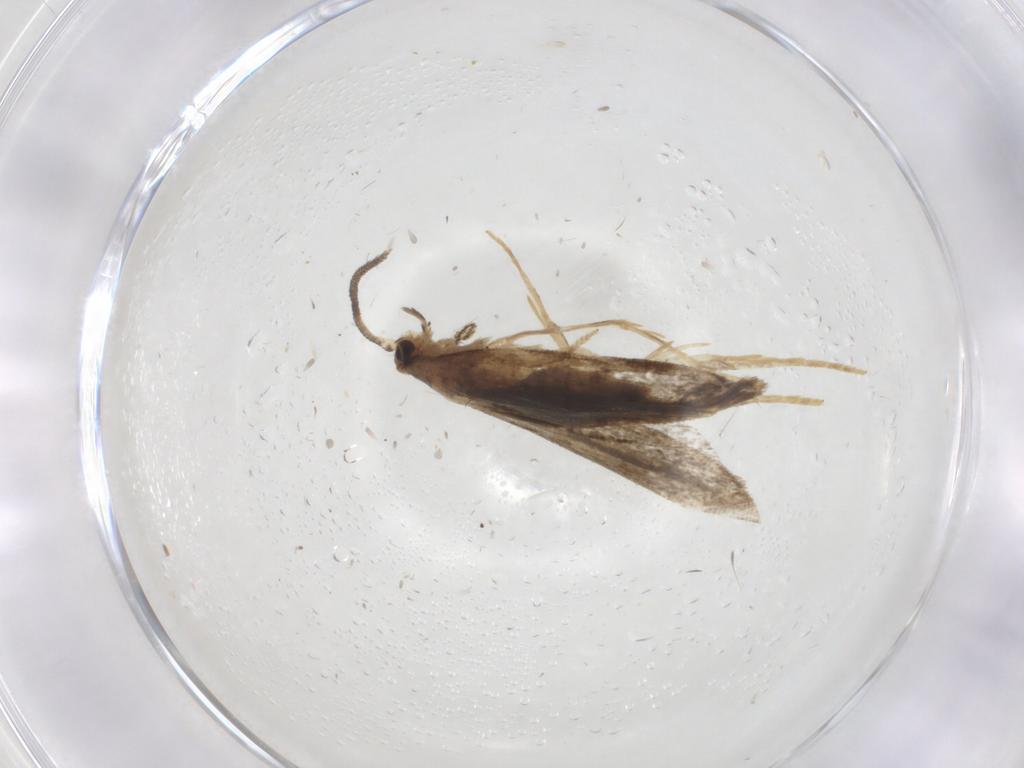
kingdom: Animalia
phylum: Arthropoda
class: Insecta
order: Lepidoptera
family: Dryadaulidae
